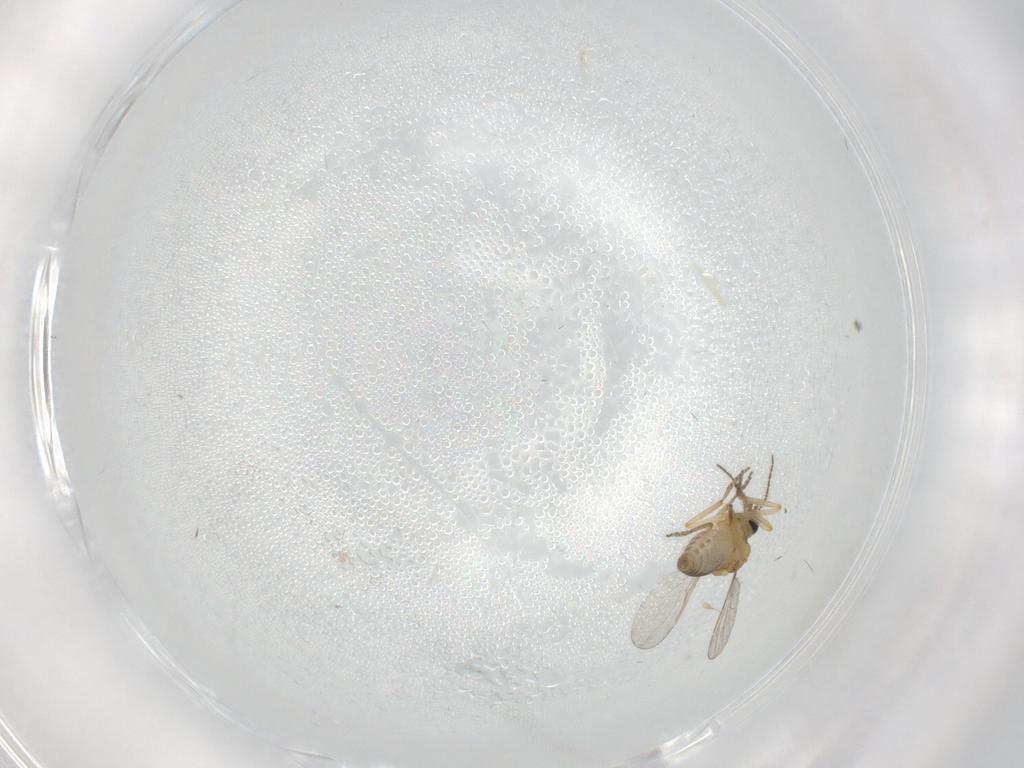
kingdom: Animalia
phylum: Arthropoda
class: Insecta
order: Diptera
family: Ceratopogonidae
